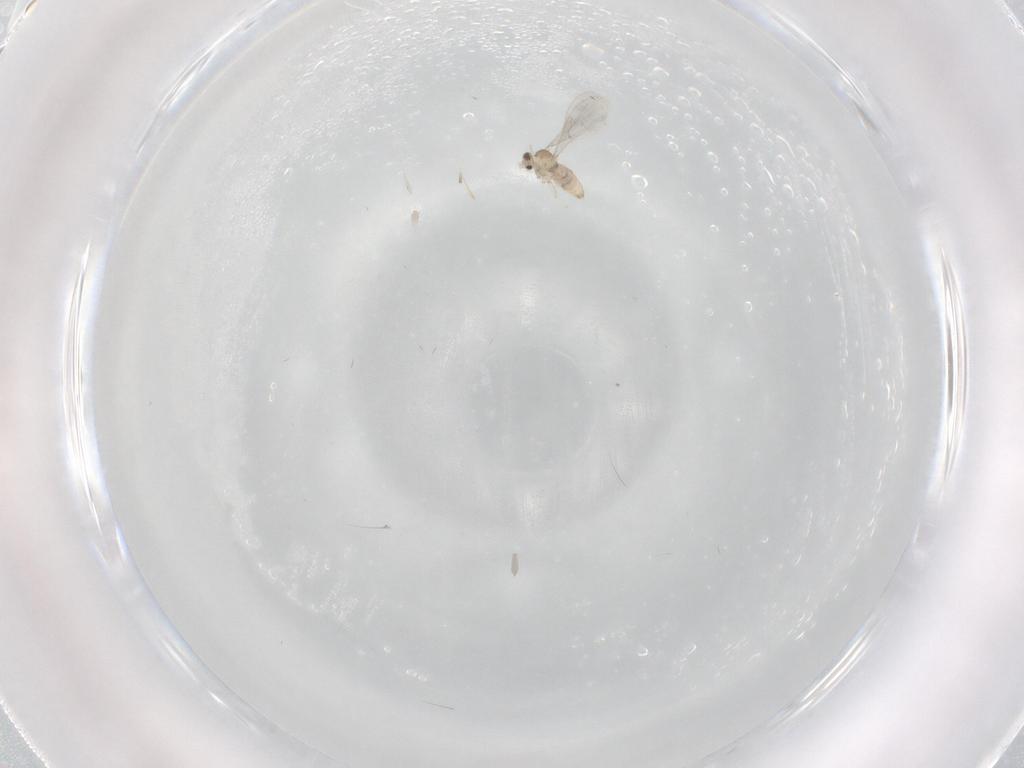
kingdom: Animalia
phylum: Arthropoda
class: Insecta
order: Diptera
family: Cecidomyiidae
